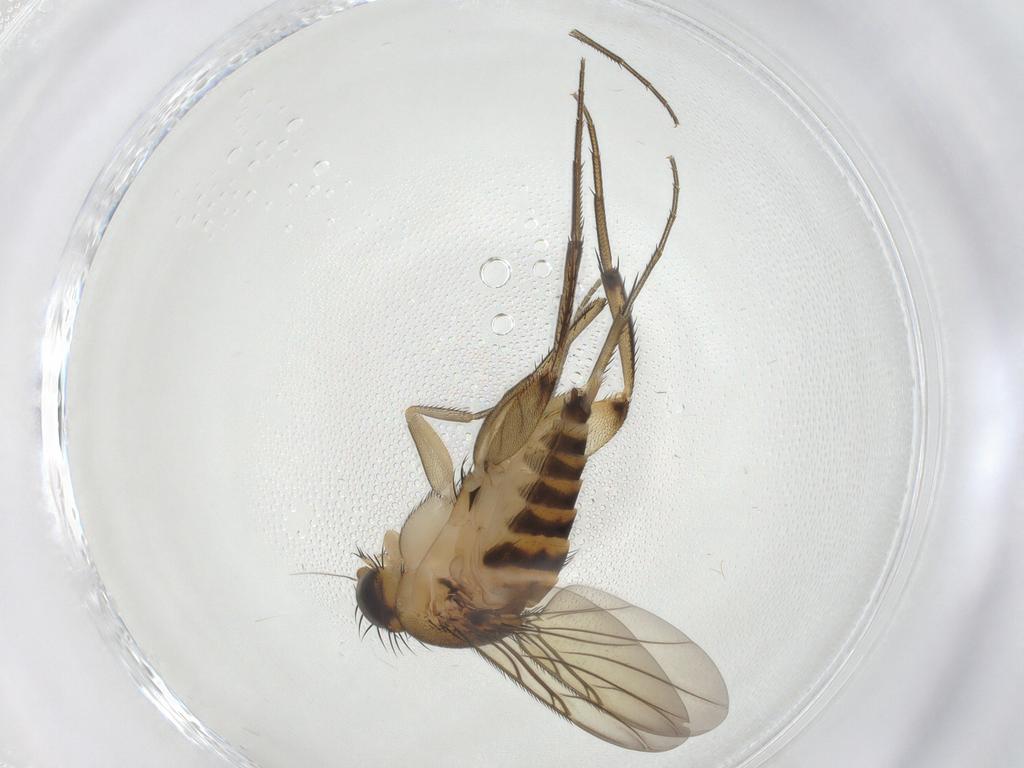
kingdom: Animalia
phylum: Arthropoda
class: Insecta
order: Diptera
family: Phoridae
